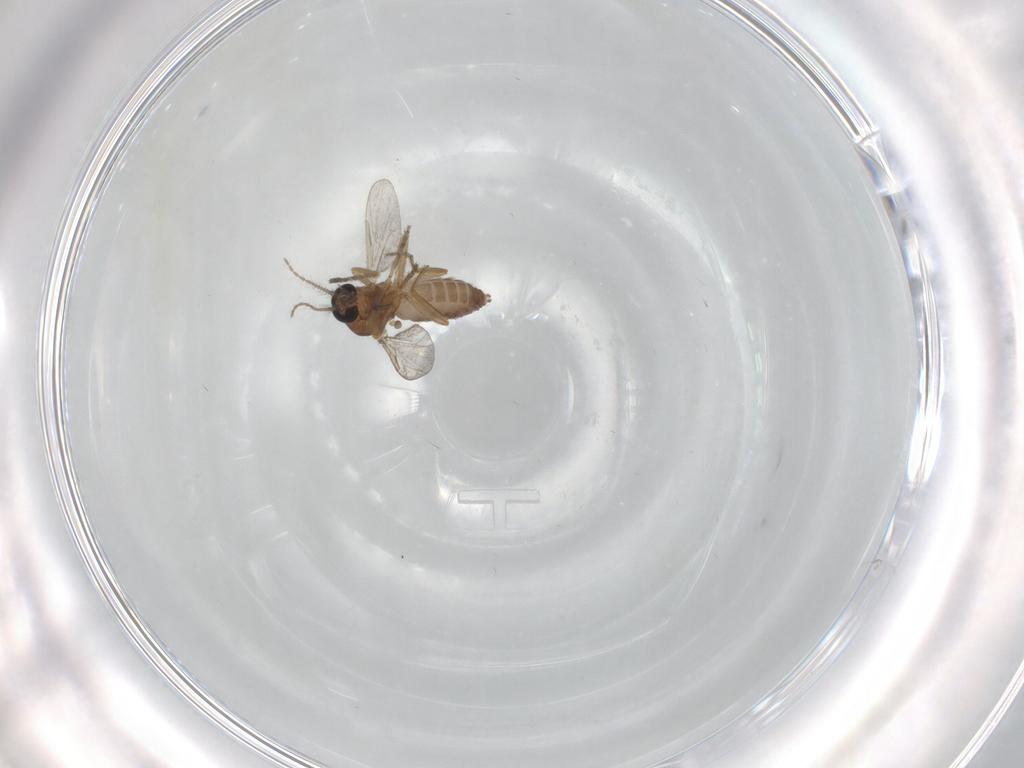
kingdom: Animalia
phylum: Arthropoda
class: Insecta
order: Diptera
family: Ceratopogonidae
